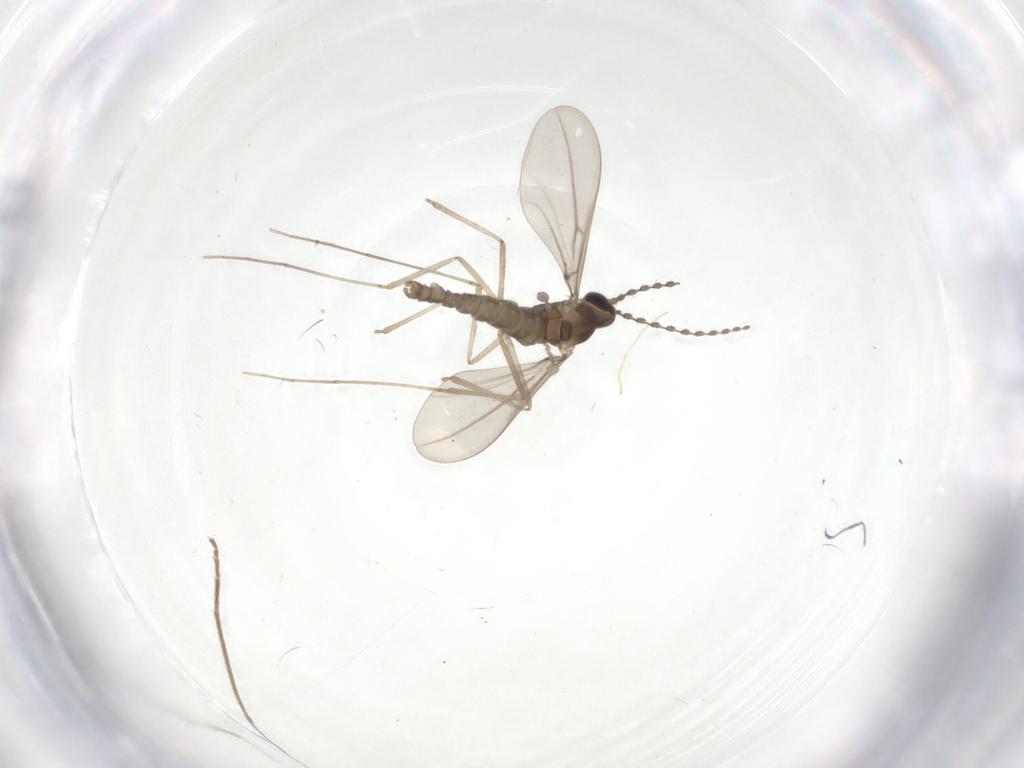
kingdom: Animalia
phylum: Arthropoda
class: Insecta
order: Diptera
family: Limoniidae
